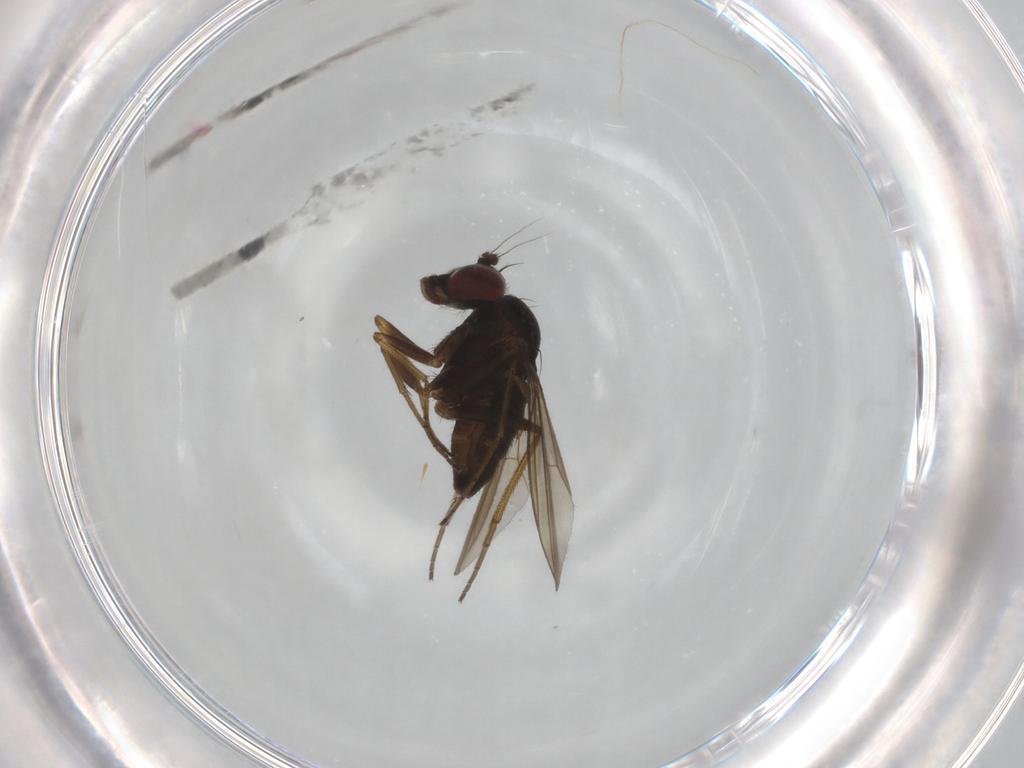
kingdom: Animalia
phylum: Arthropoda
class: Insecta
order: Diptera
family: Dolichopodidae
